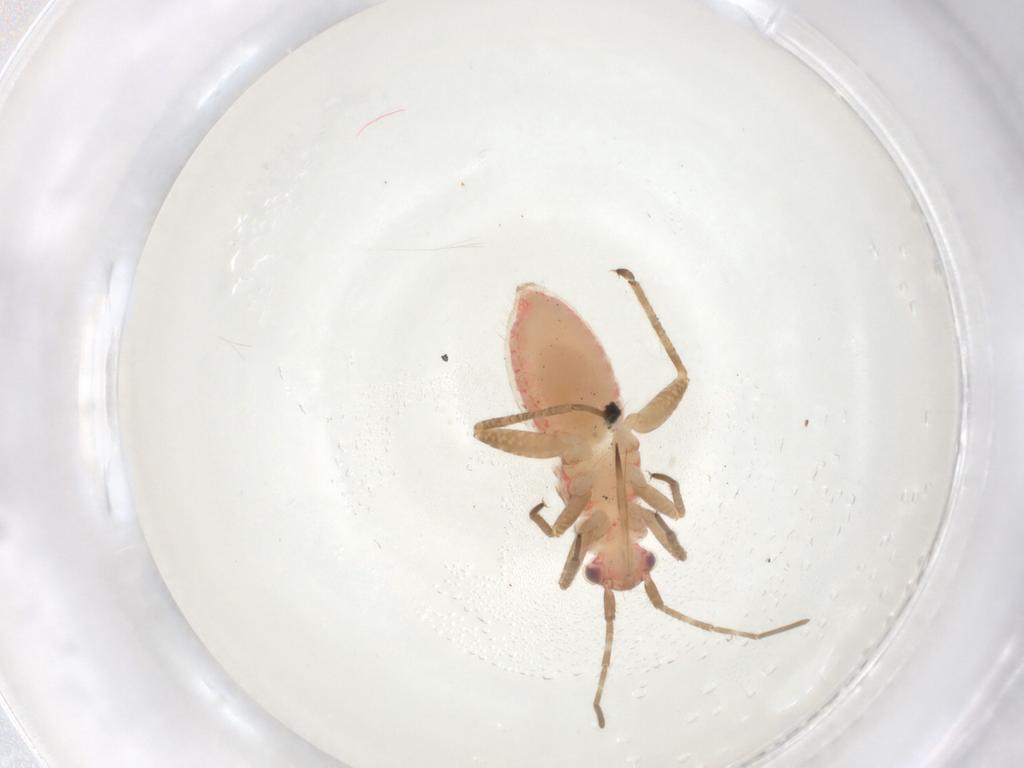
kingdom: Animalia
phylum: Arthropoda
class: Insecta
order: Hemiptera
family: Miridae
